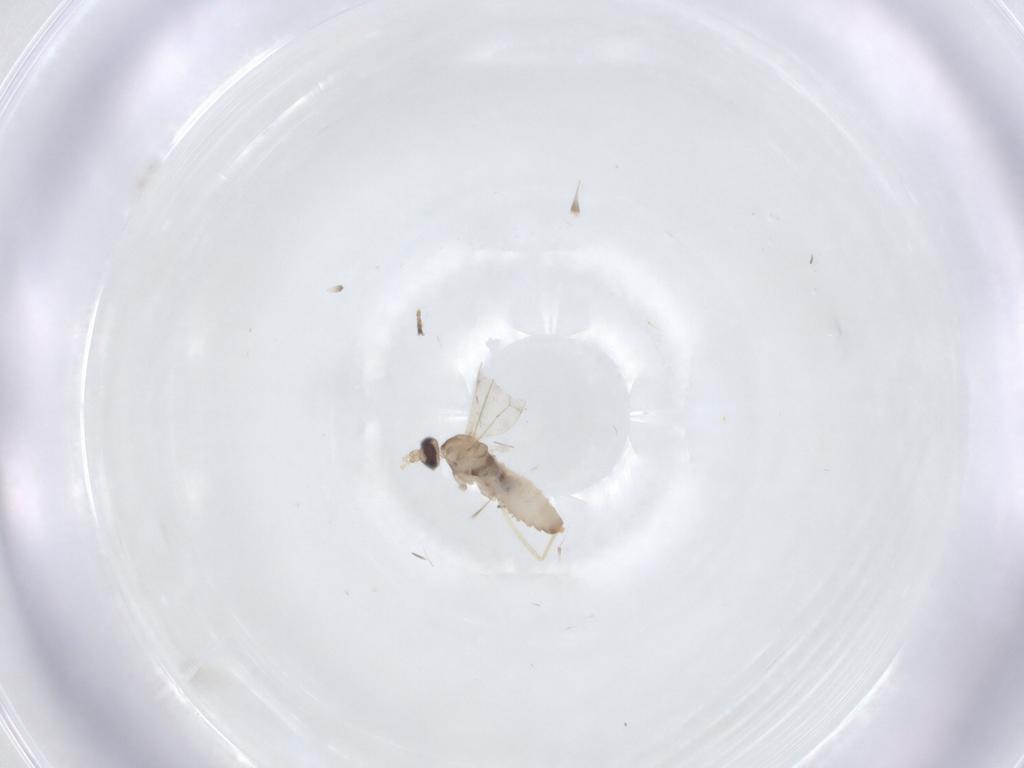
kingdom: Animalia
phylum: Arthropoda
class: Insecta
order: Diptera
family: Cecidomyiidae
